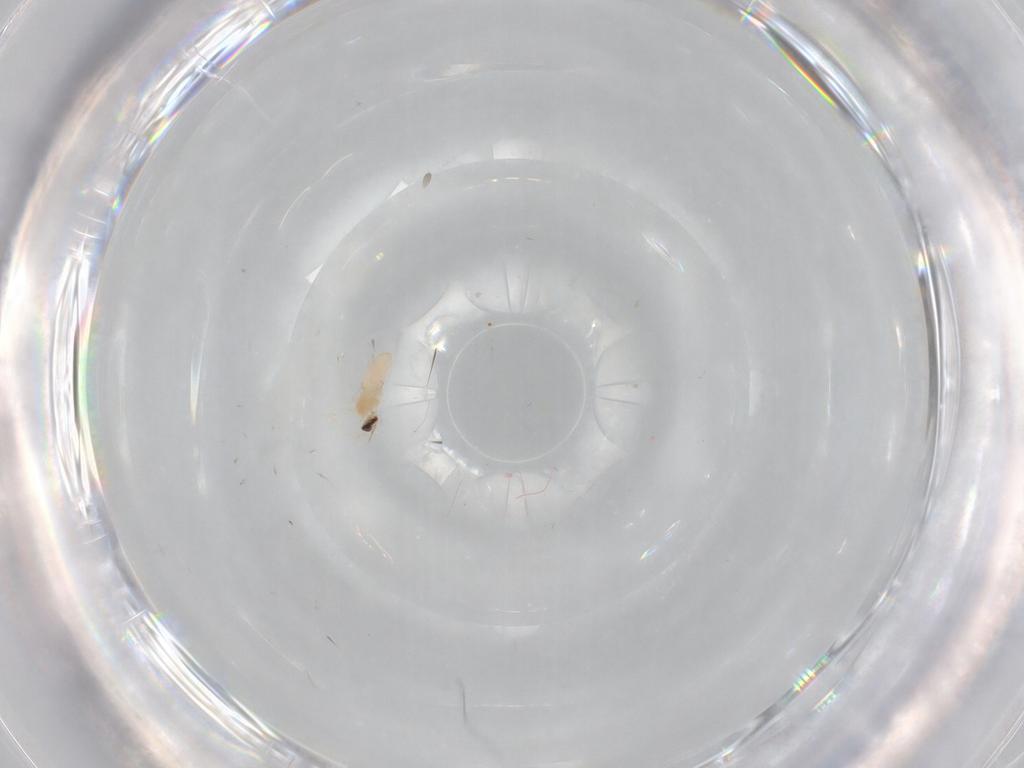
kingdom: Animalia
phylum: Arthropoda
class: Insecta
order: Diptera
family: Cecidomyiidae
